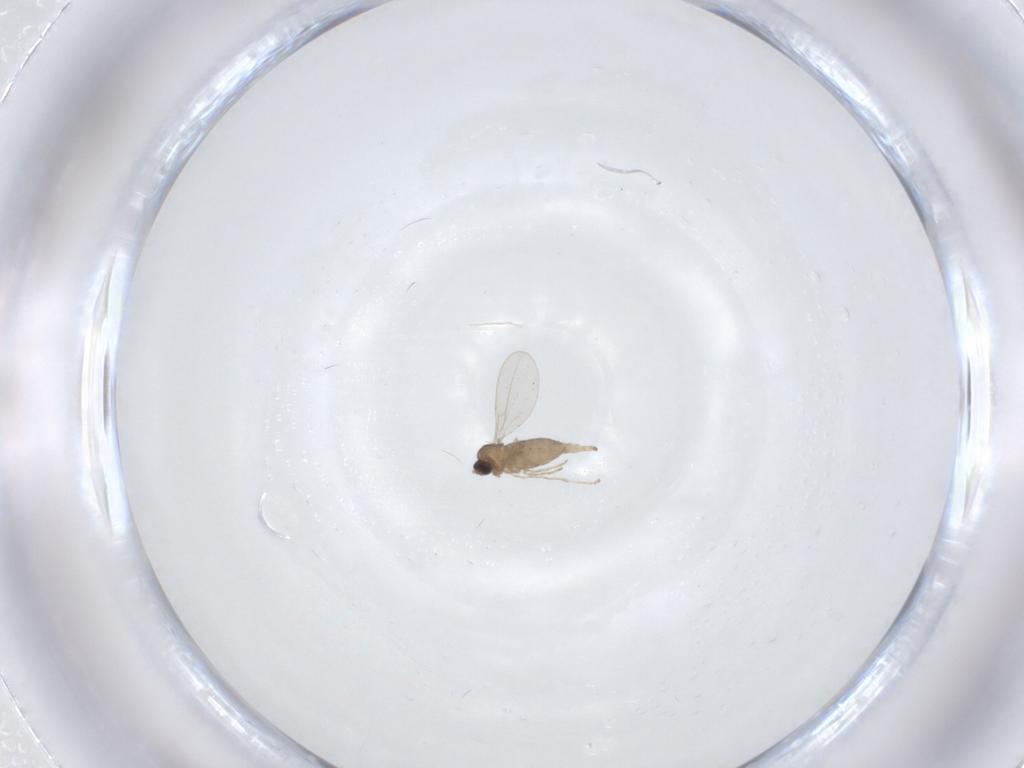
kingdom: Animalia
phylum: Arthropoda
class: Insecta
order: Diptera
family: Cecidomyiidae
